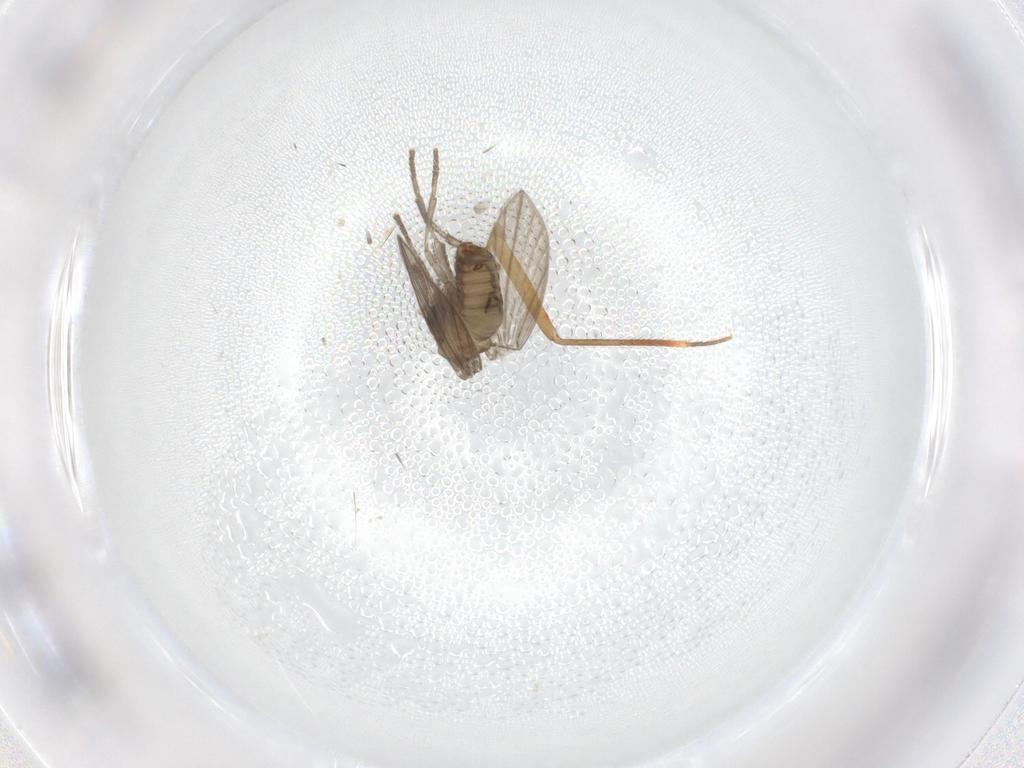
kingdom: Animalia
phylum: Arthropoda
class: Insecta
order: Diptera
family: Psychodidae
